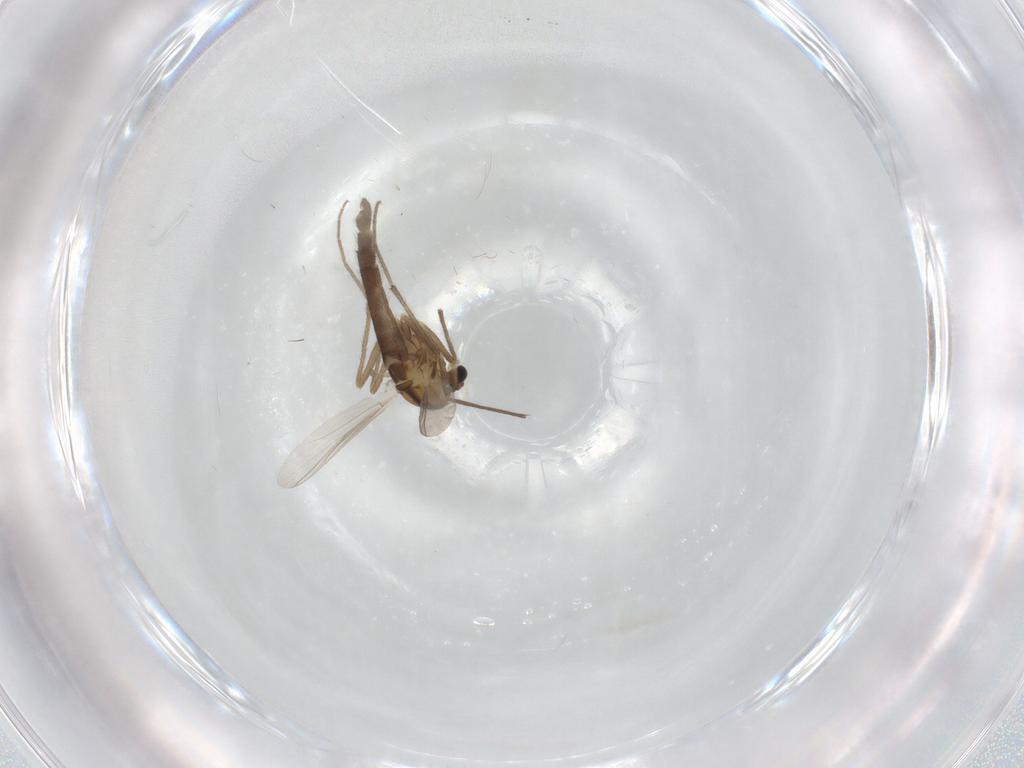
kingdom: Animalia
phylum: Arthropoda
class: Insecta
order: Diptera
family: Chironomidae
